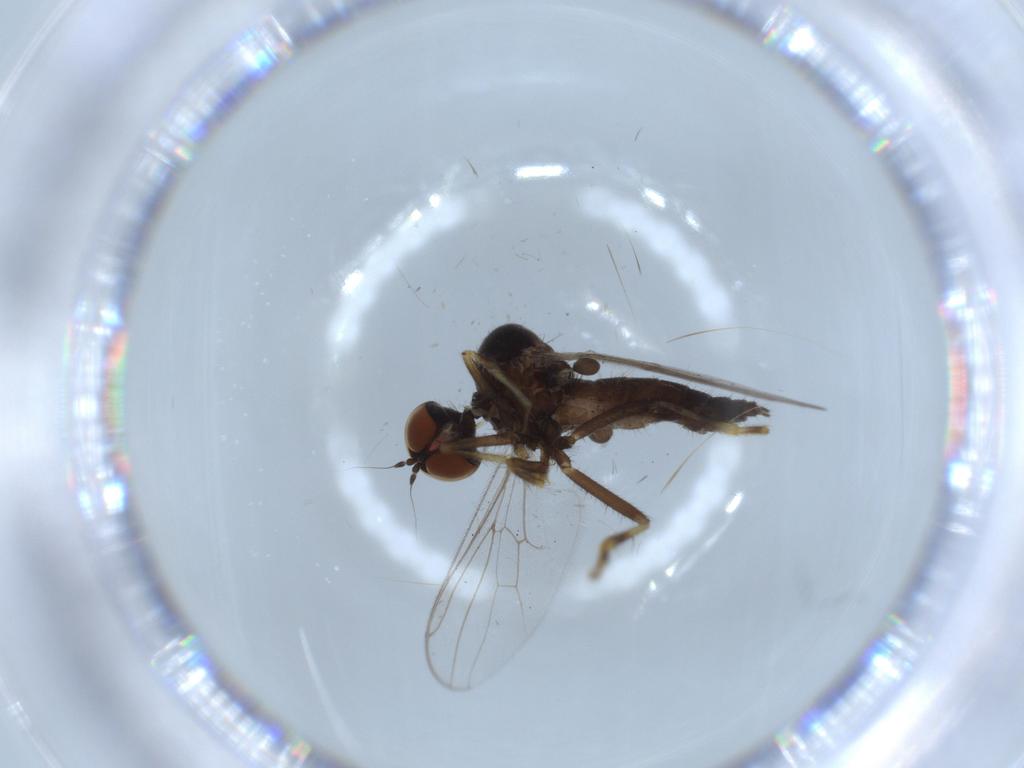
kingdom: Animalia
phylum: Arthropoda
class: Insecta
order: Diptera
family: Hybotidae
